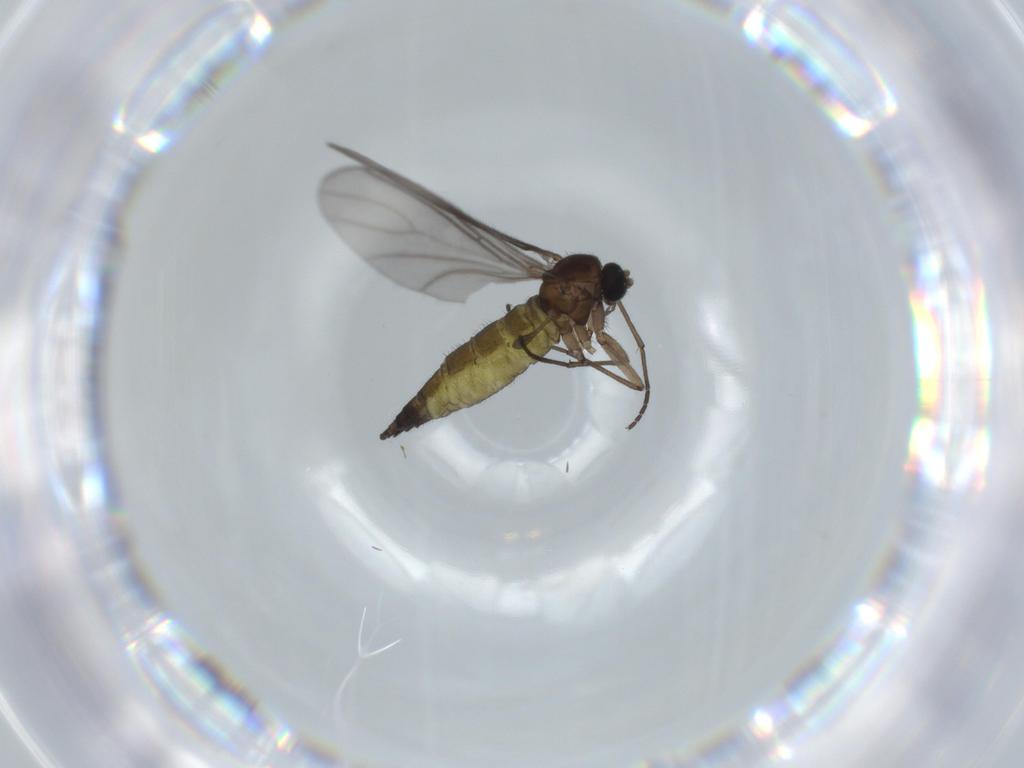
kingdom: Animalia
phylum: Arthropoda
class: Insecta
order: Diptera
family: Sciaridae
